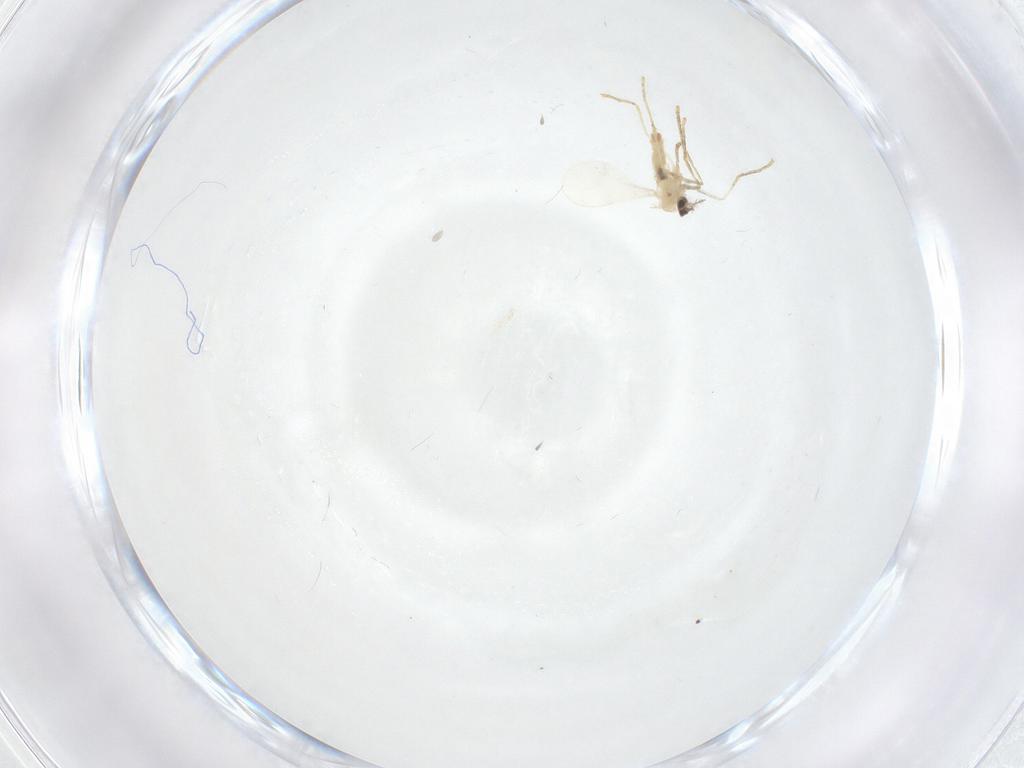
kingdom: Animalia
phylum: Arthropoda
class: Insecta
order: Diptera
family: Cecidomyiidae
